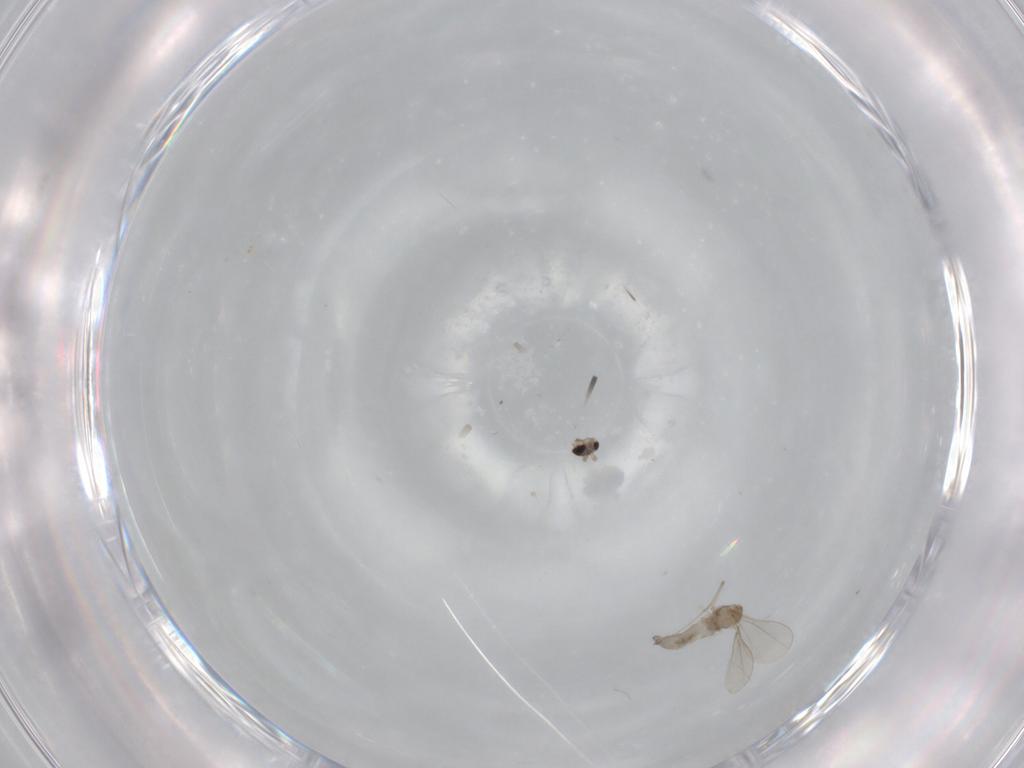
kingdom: Animalia
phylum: Arthropoda
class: Insecta
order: Diptera
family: Cecidomyiidae
